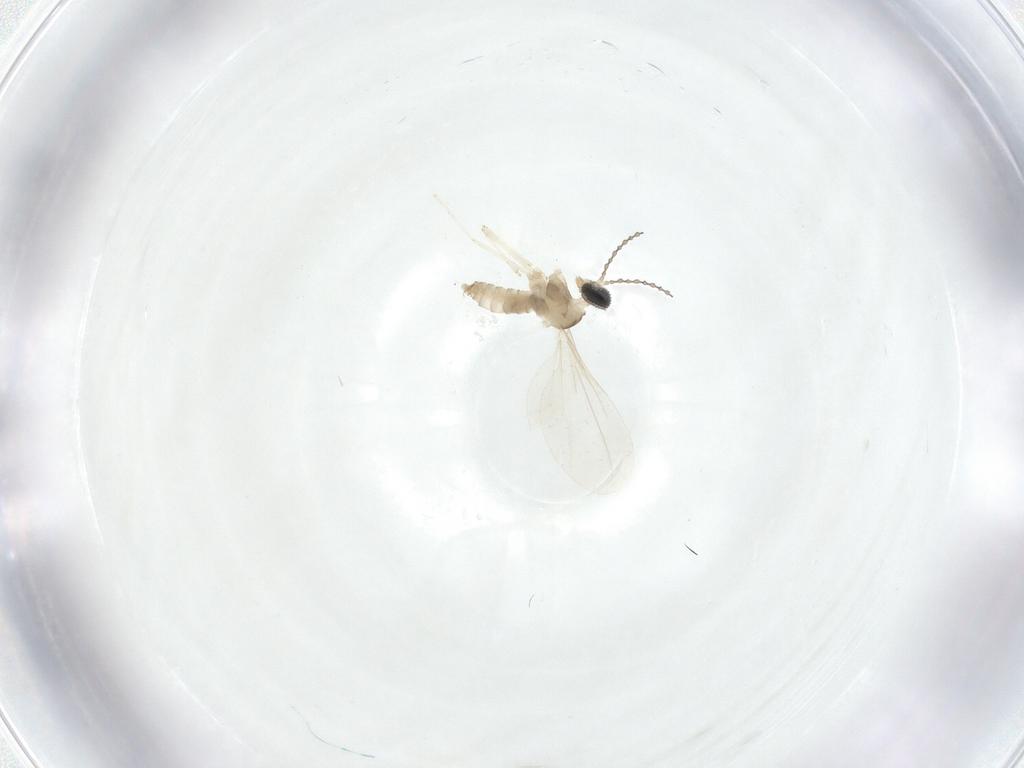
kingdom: Animalia
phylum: Arthropoda
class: Insecta
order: Diptera
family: Cecidomyiidae
